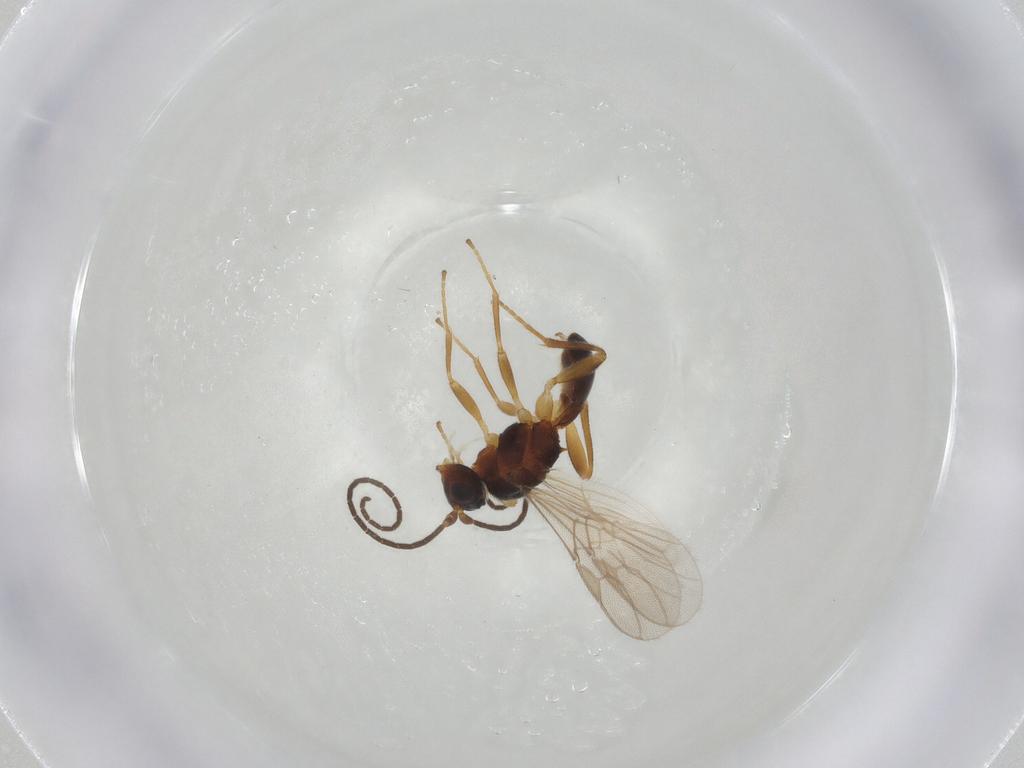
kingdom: Animalia
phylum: Arthropoda
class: Insecta
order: Hymenoptera
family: Braconidae
